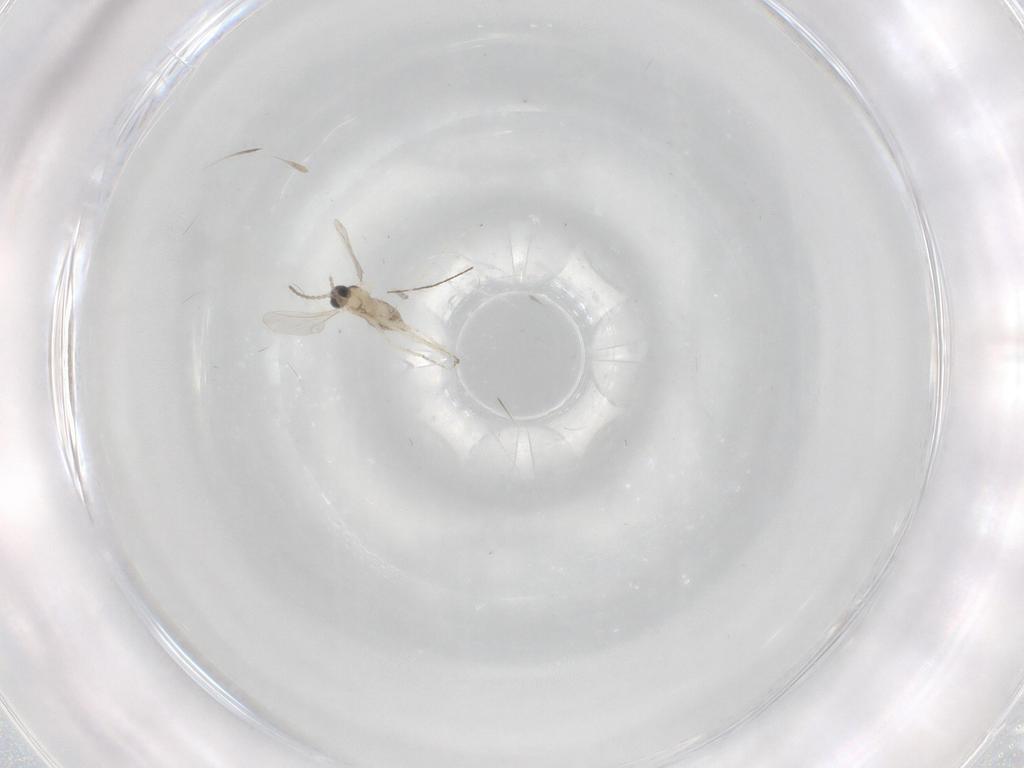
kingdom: Animalia
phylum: Arthropoda
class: Insecta
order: Diptera
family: Cecidomyiidae
